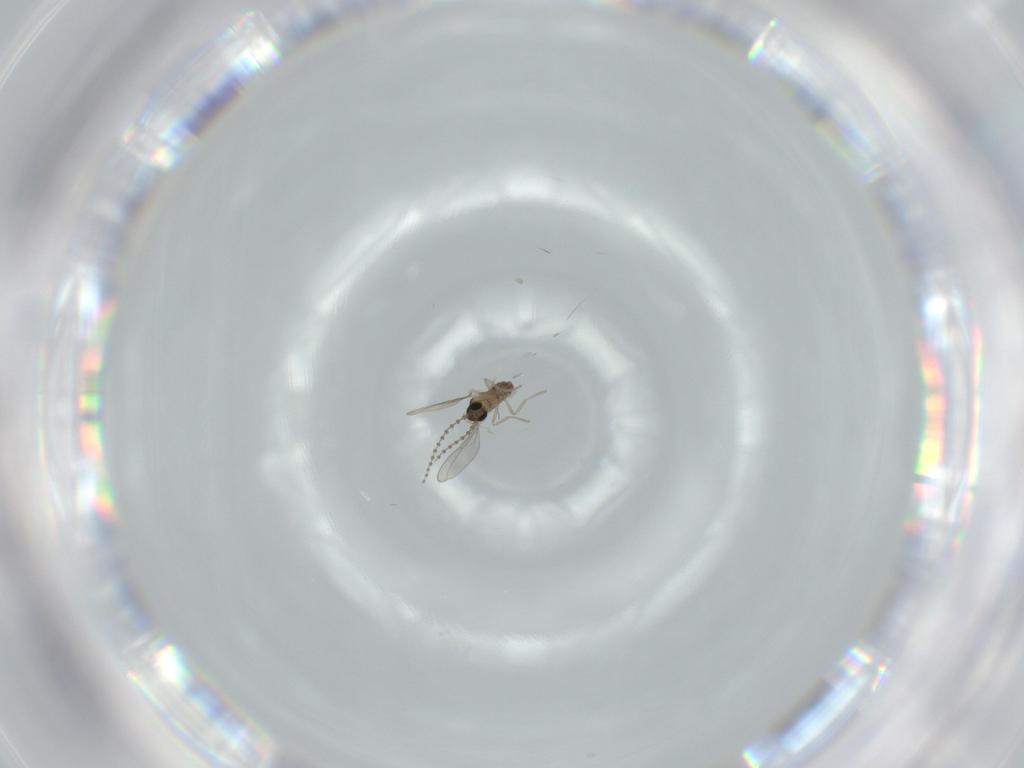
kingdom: Animalia
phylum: Arthropoda
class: Insecta
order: Diptera
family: Cecidomyiidae
